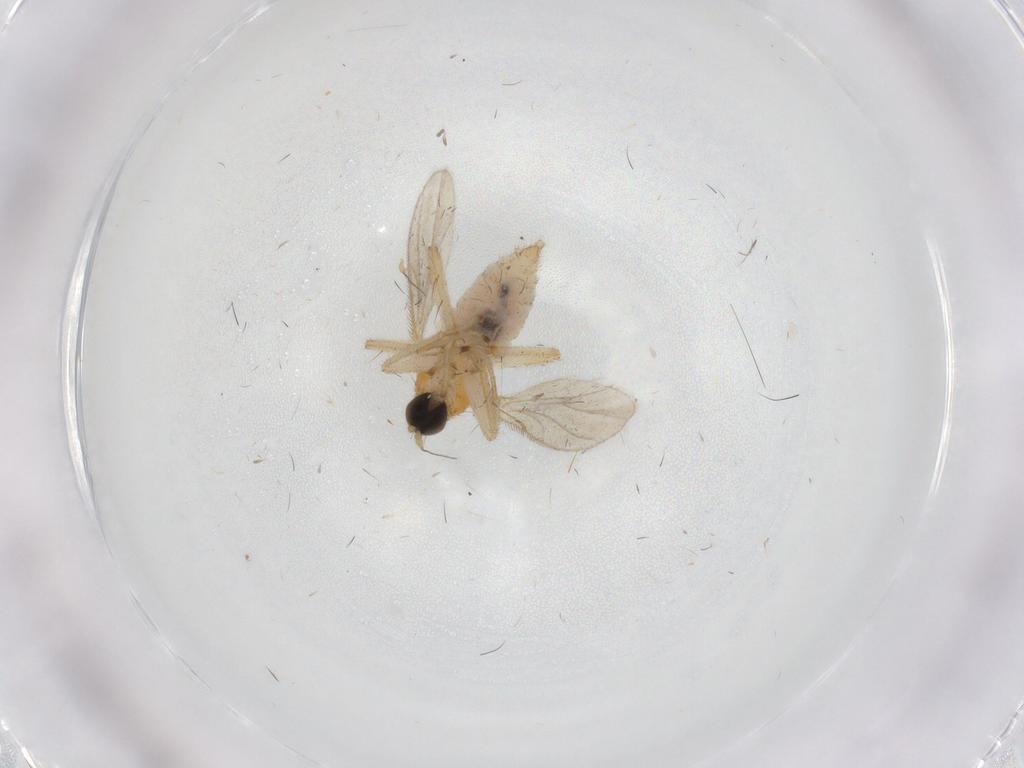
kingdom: Animalia
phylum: Arthropoda
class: Insecta
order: Diptera
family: Hybotidae
